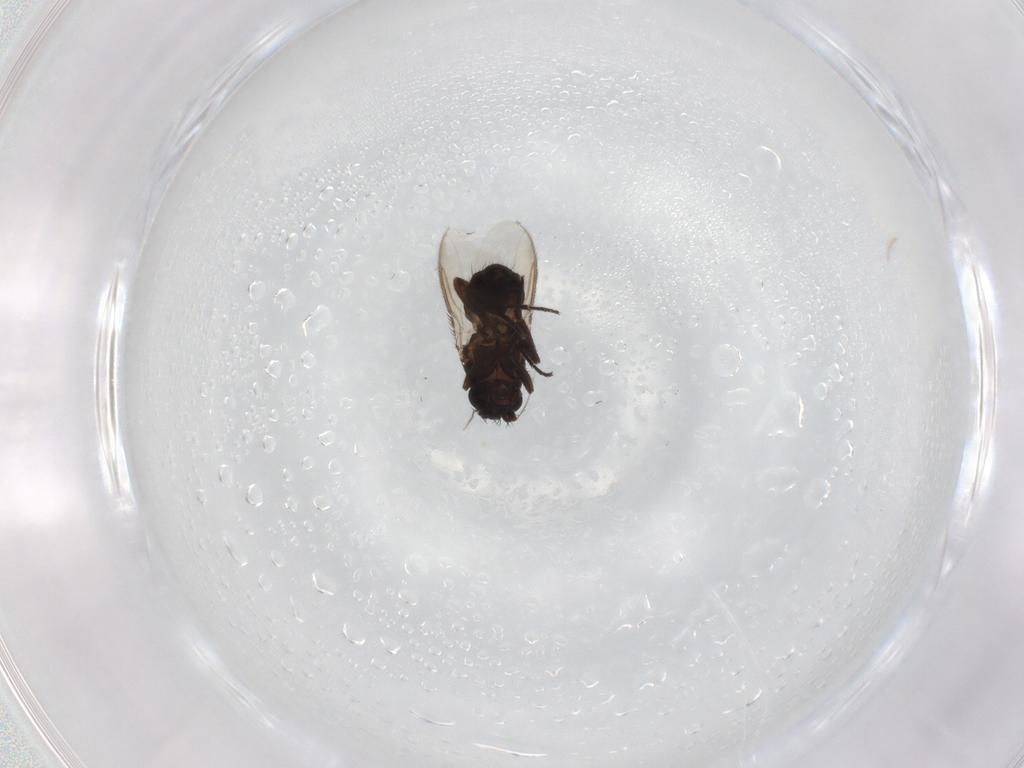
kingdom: Animalia
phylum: Arthropoda
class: Insecta
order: Diptera
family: Sphaeroceridae
